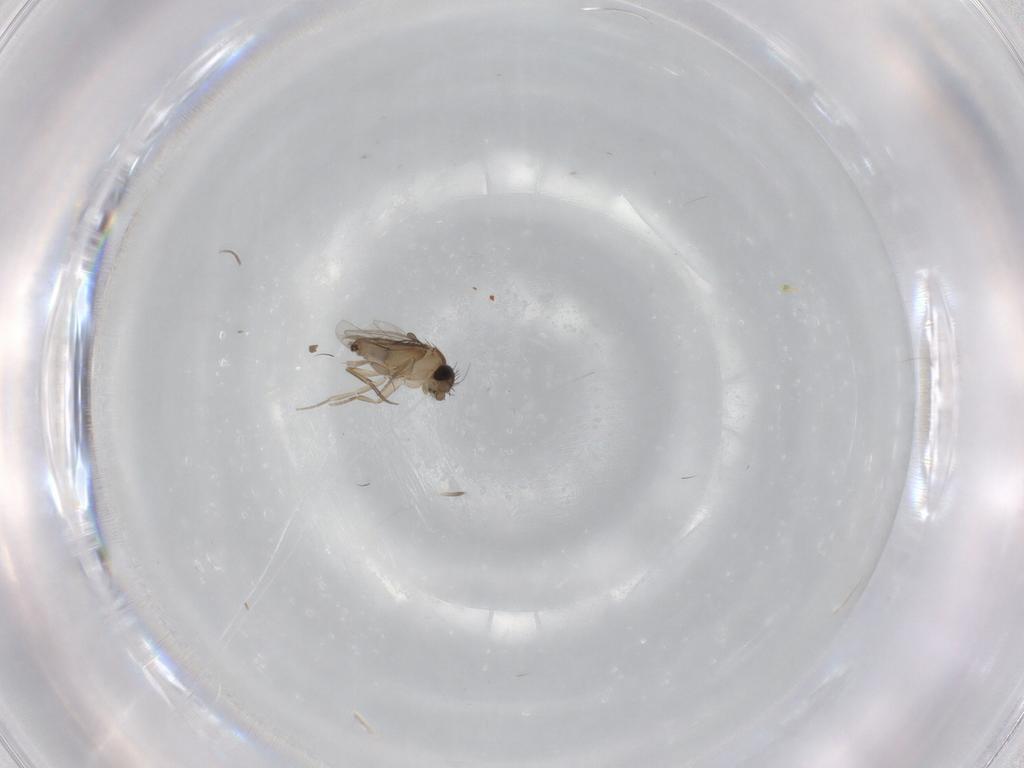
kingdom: Animalia
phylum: Arthropoda
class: Insecta
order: Diptera
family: Phoridae
